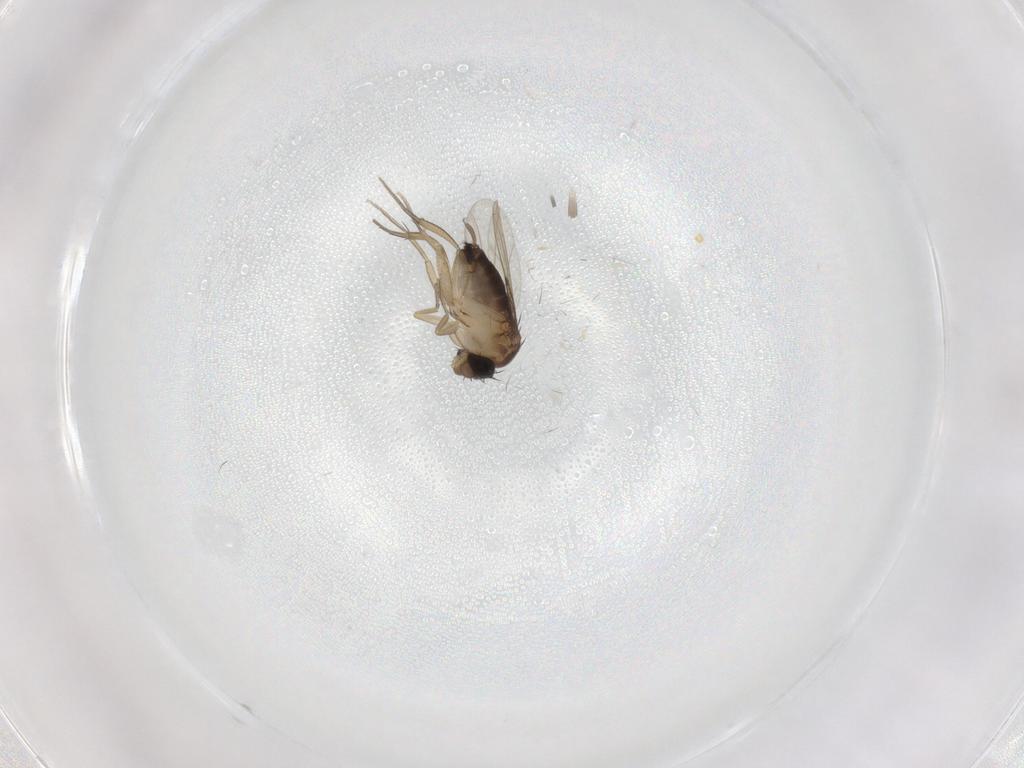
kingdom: Animalia
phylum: Arthropoda
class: Insecta
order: Diptera
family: Phoridae
